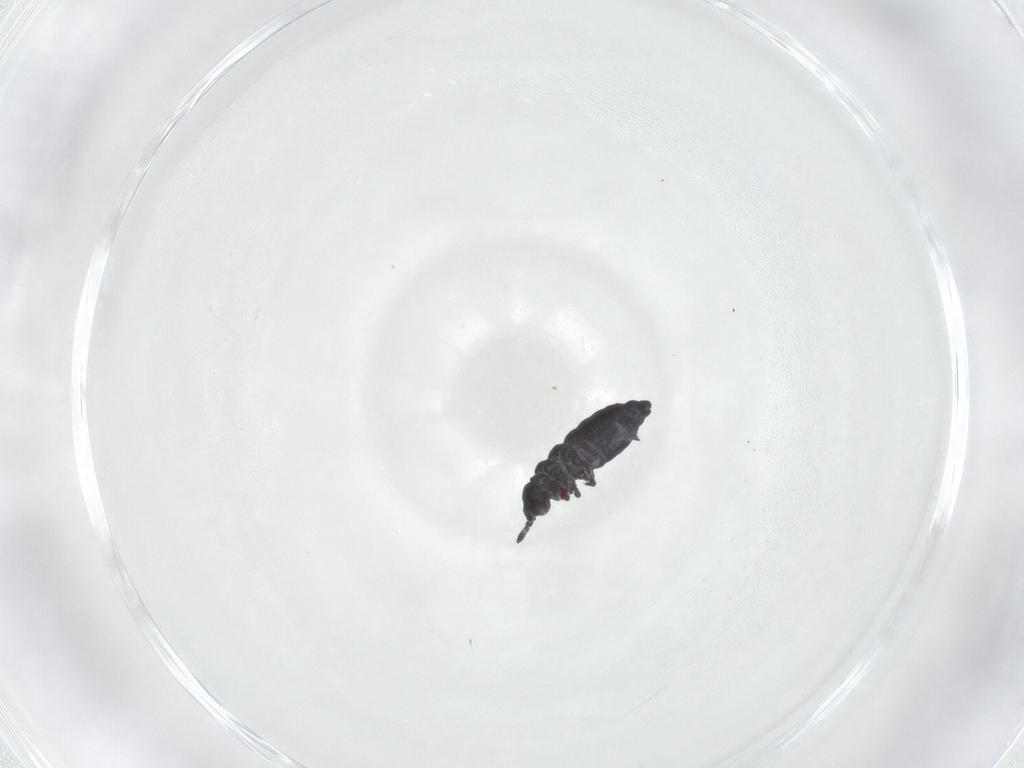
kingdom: Animalia
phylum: Arthropoda
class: Collembola
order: Poduromorpha
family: Hypogastruridae
